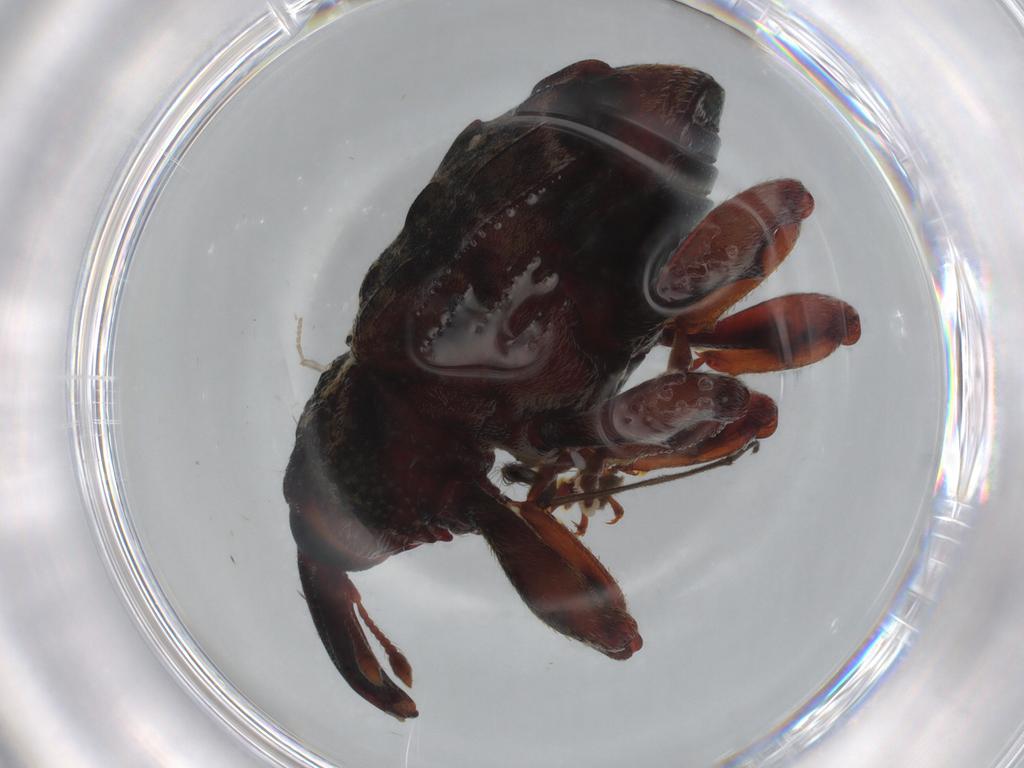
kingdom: Animalia
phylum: Arthropoda
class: Insecta
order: Coleoptera
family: Curculionidae
